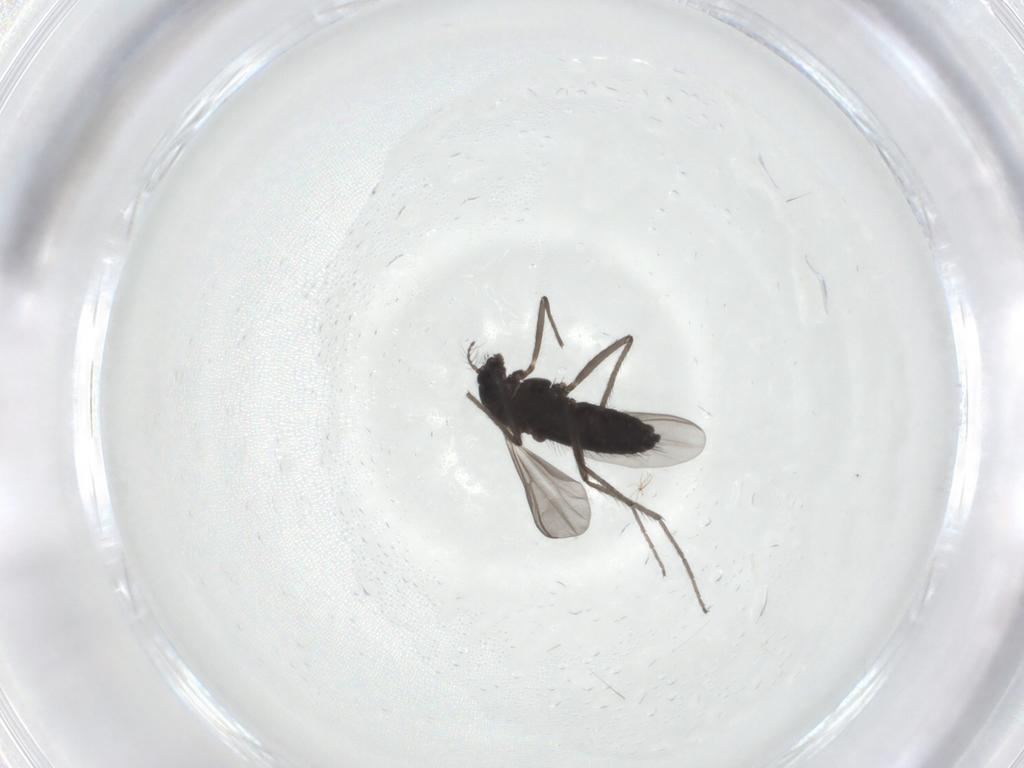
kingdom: Animalia
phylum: Arthropoda
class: Insecta
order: Diptera
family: Chironomidae
